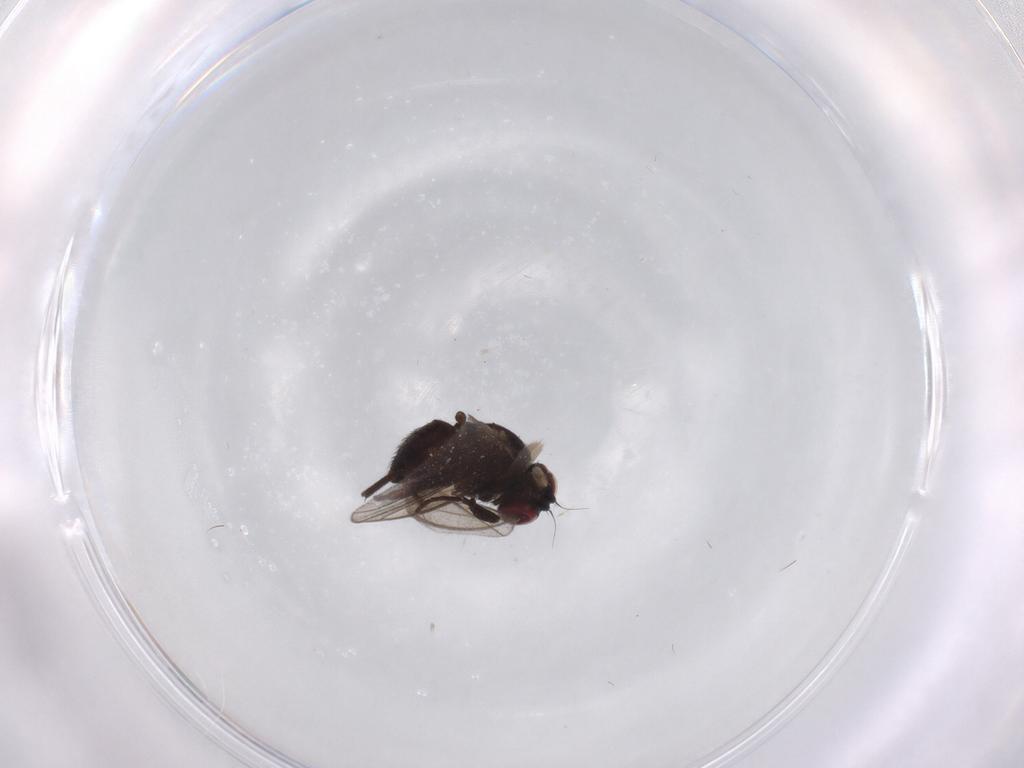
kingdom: Animalia
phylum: Arthropoda
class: Insecta
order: Diptera
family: Agromyzidae
